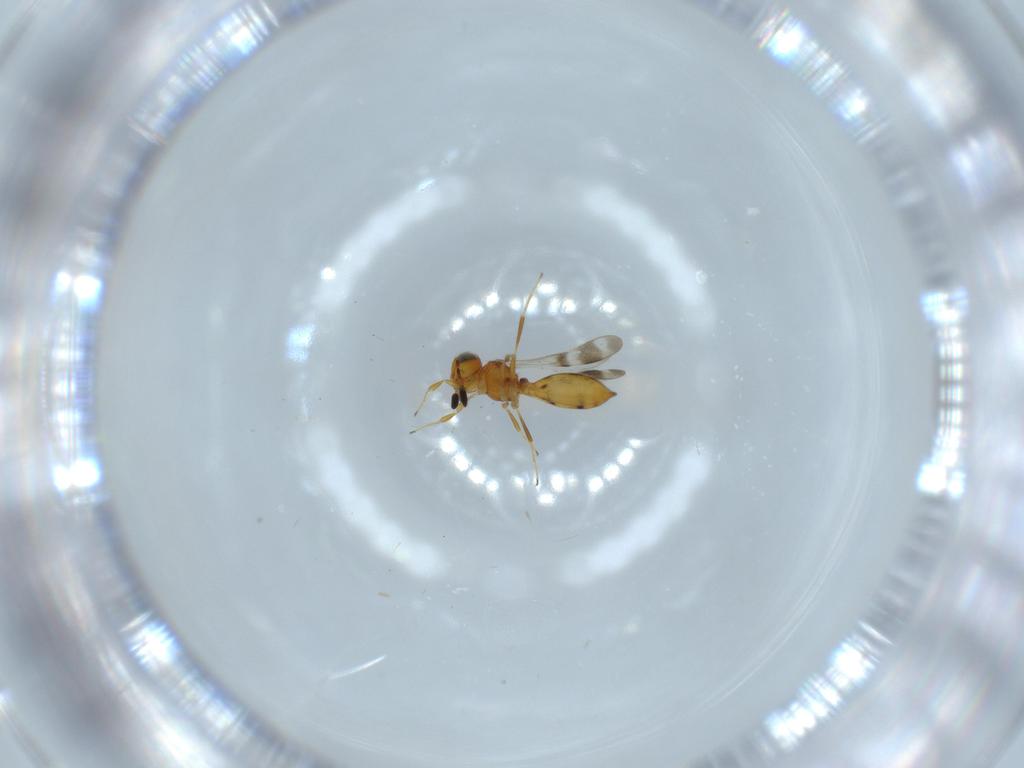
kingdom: Animalia
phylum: Arthropoda
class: Insecta
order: Hymenoptera
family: Scelionidae
